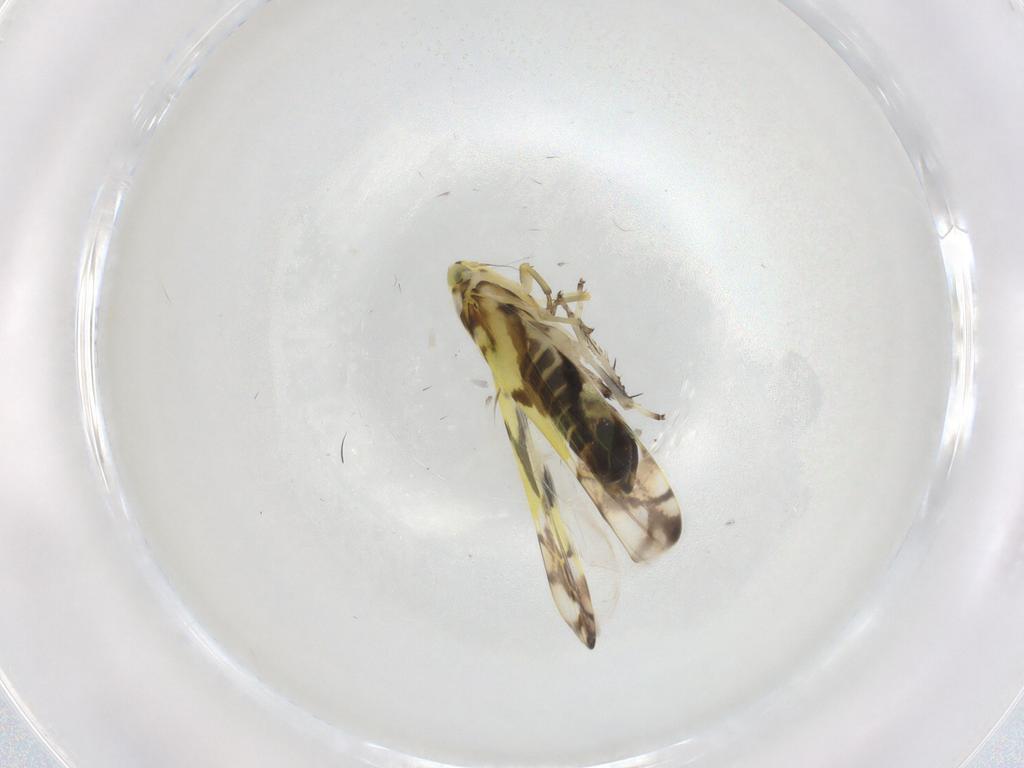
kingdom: Animalia
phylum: Arthropoda
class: Insecta
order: Hemiptera
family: Cicadellidae
